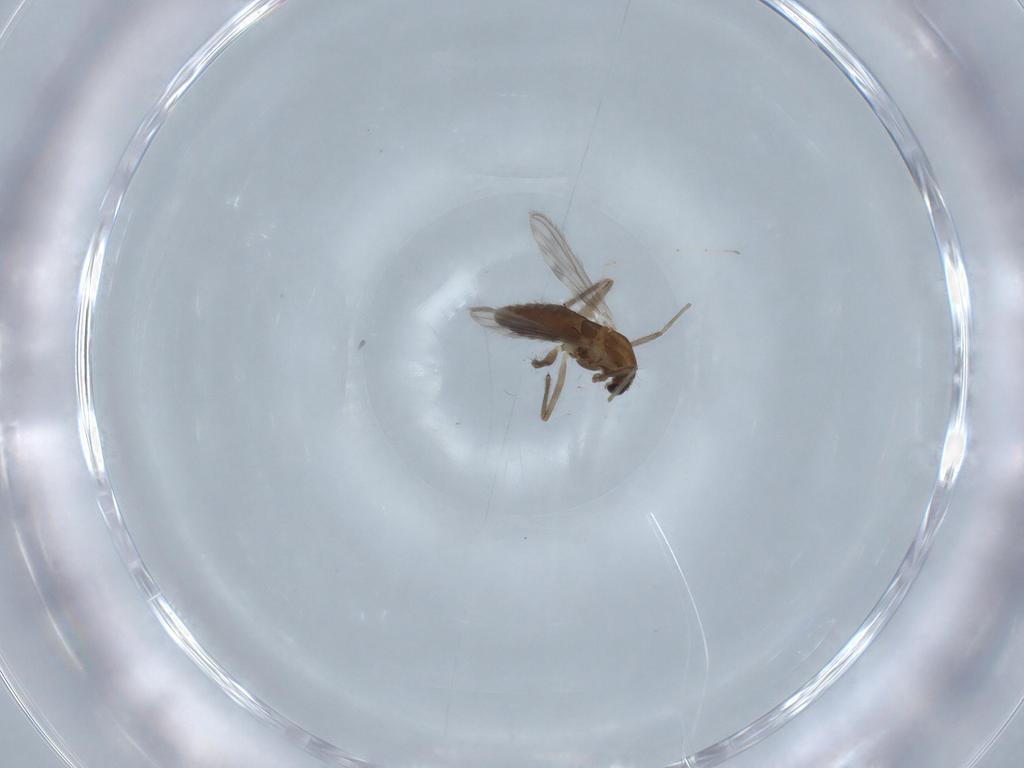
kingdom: Animalia
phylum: Arthropoda
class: Insecta
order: Diptera
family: Chironomidae
